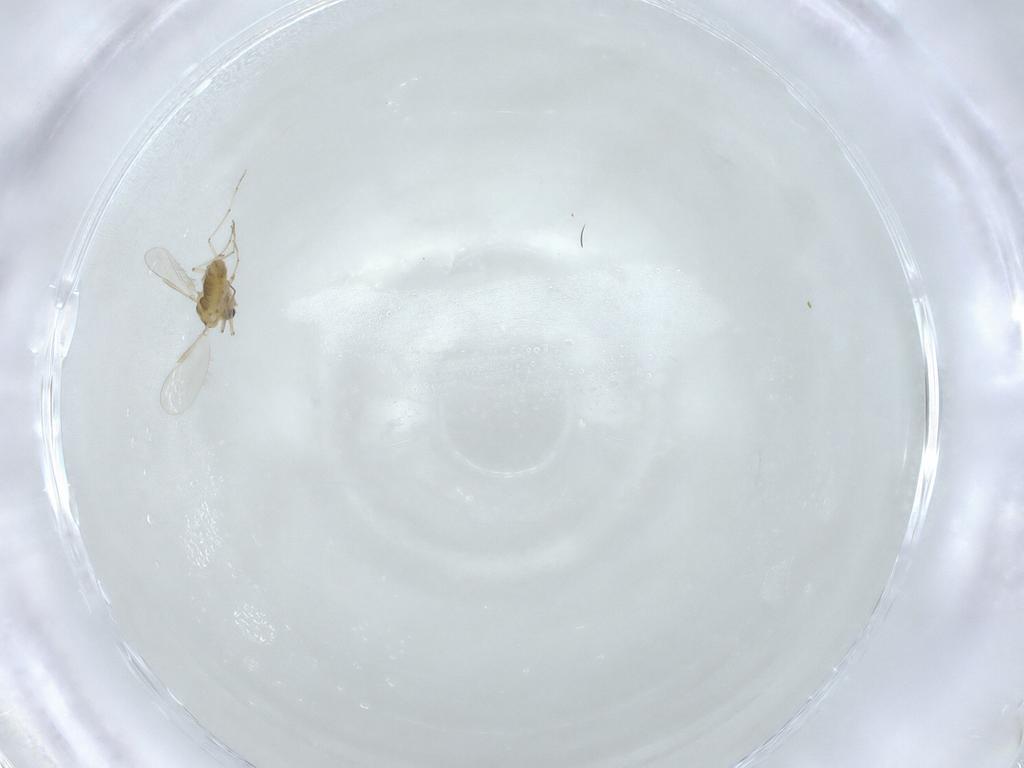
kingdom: Animalia
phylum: Arthropoda
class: Insecta
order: Diptera
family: Chironomidae
